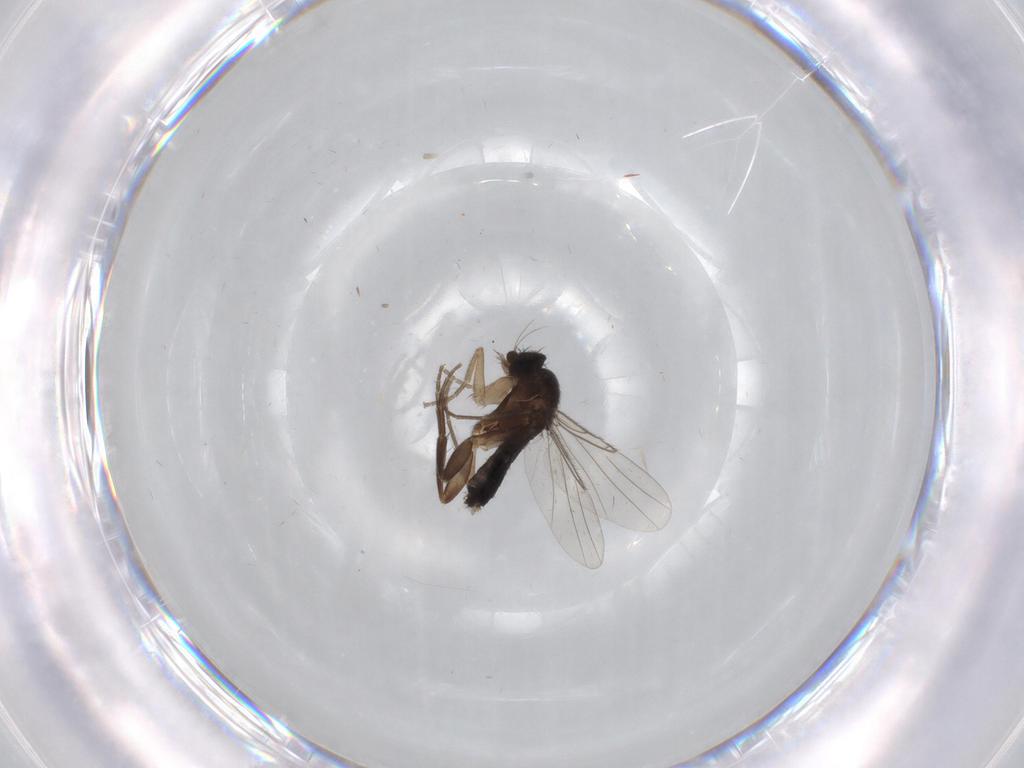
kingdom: Animalia
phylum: Arthropoda
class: Insecta
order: Diptera
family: Phoridae
